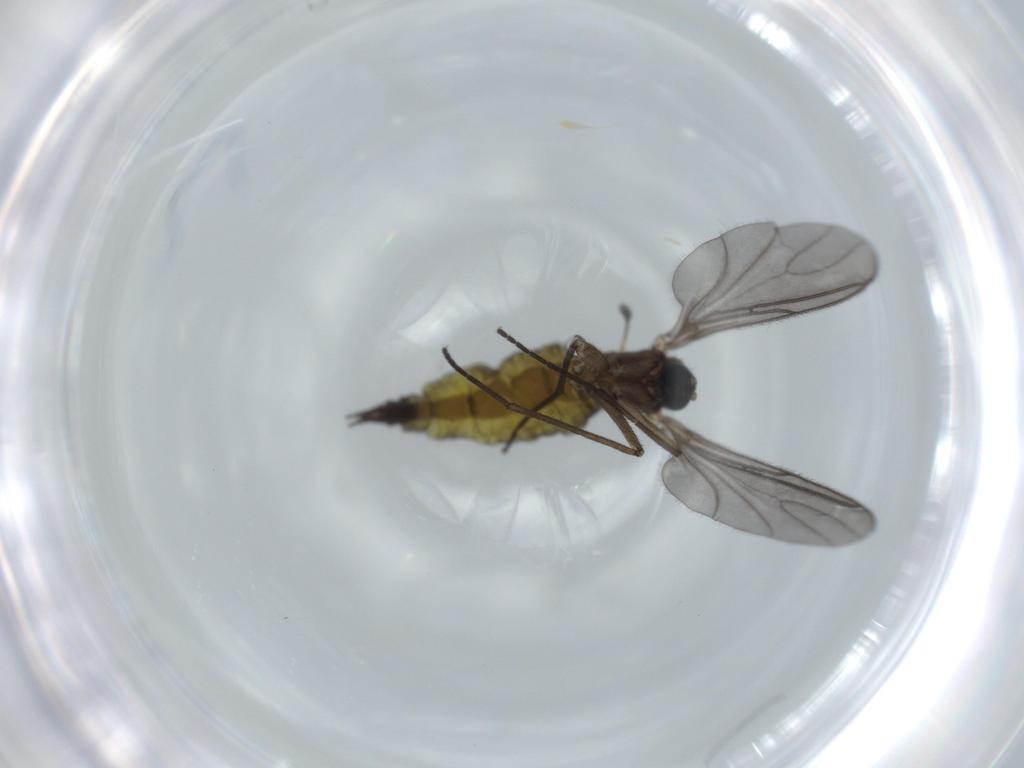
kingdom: Animalia
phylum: Arthropoda
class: Insecta
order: Diptera
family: Sciaridae
